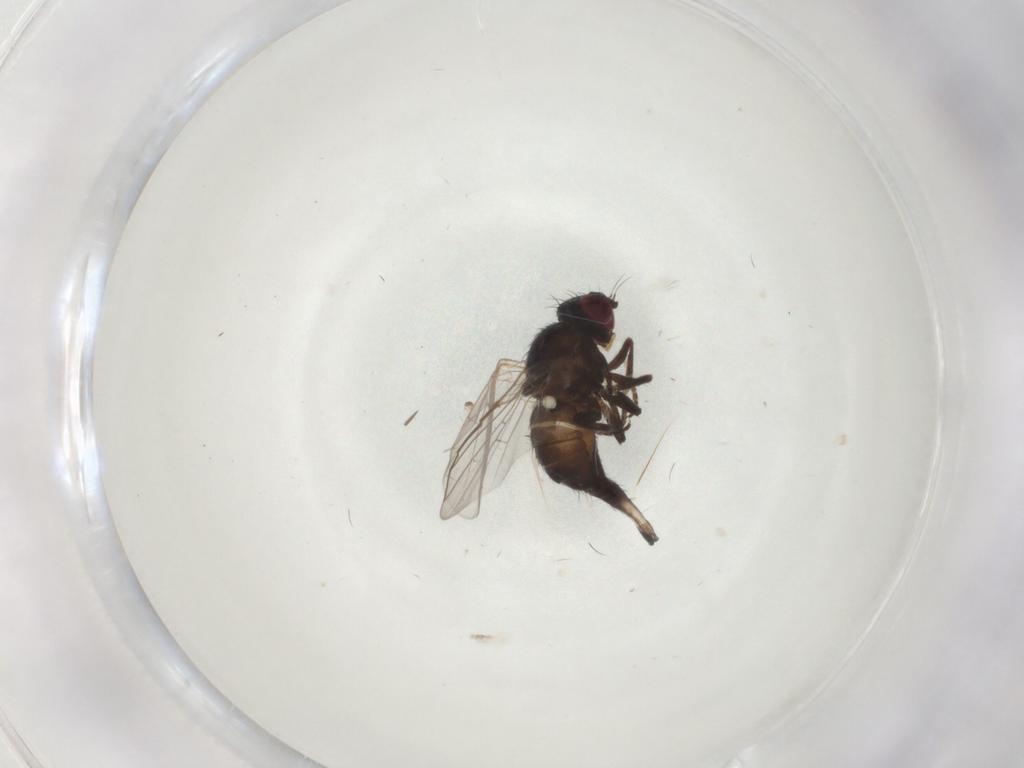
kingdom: Animalia
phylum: Arthropoda
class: Insecta
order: Diptera
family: Agromyzidae
